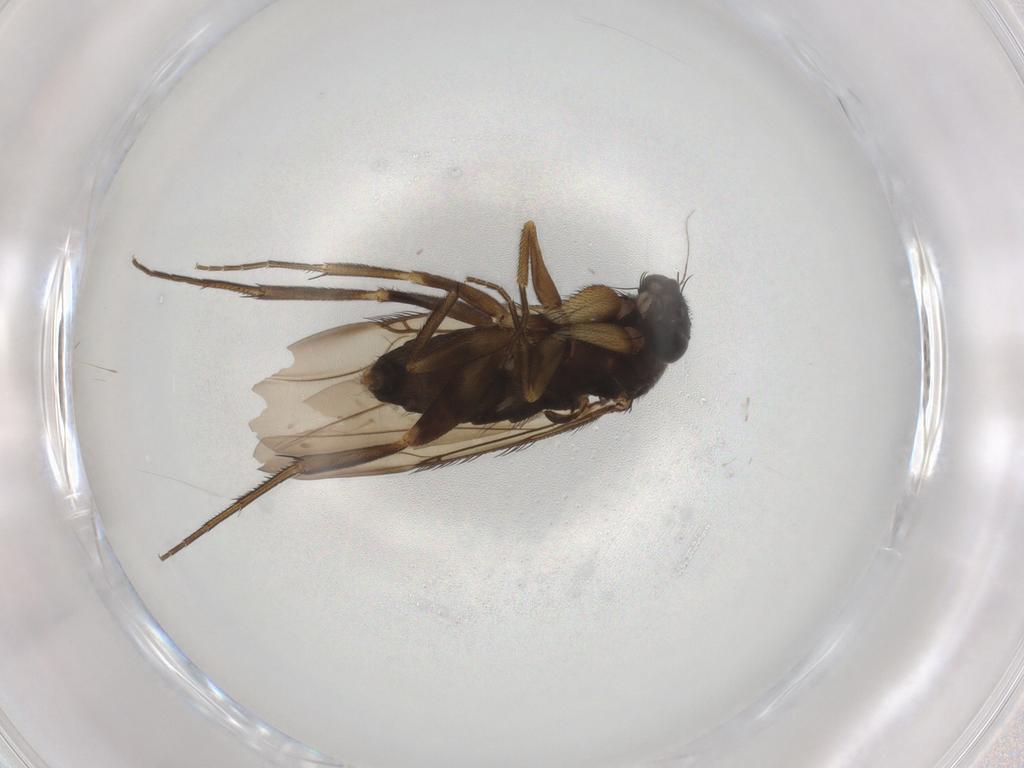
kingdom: Animalia
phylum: Arthropoda
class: Insecta
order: Diptera
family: Phoridae
